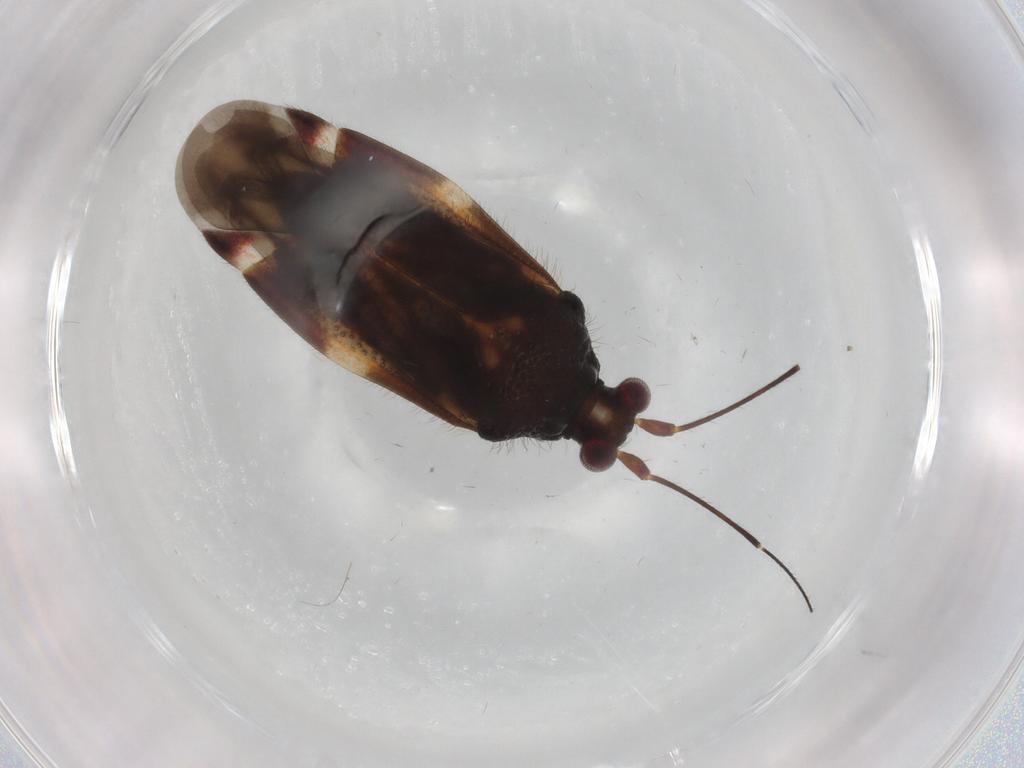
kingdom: Animalia
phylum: Arthropoda
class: Insecta
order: Hemiptera
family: Miridae
